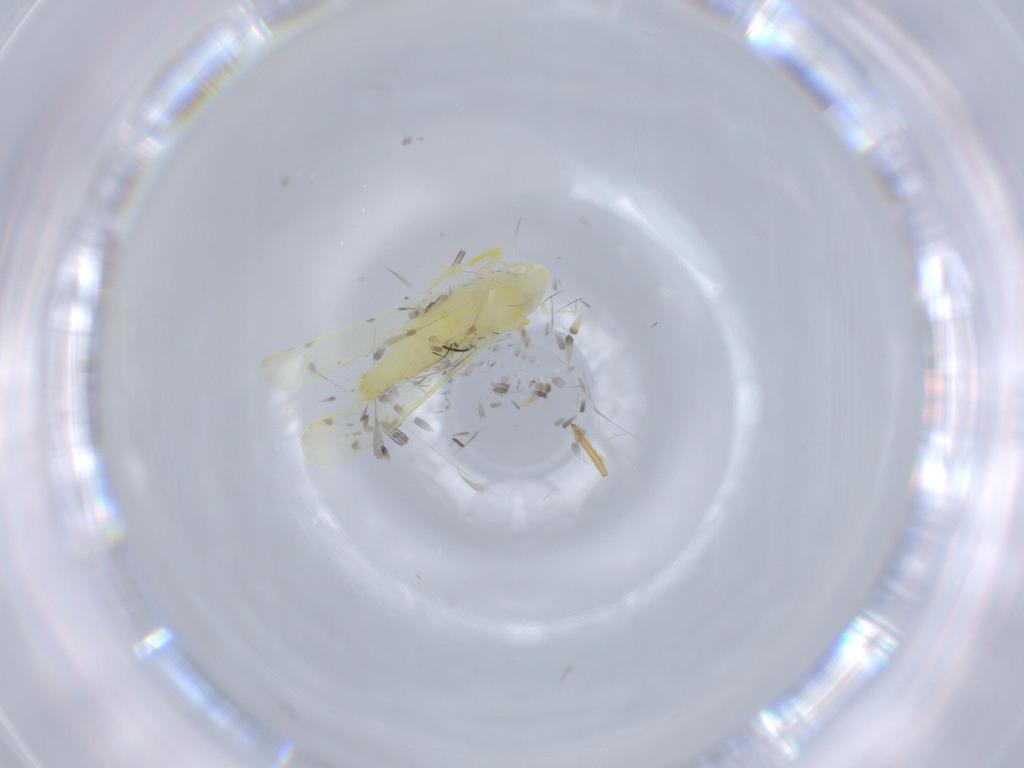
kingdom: Animalia
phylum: Arthropoda
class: Insecta
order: Hemiptera
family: Cicadellidae
